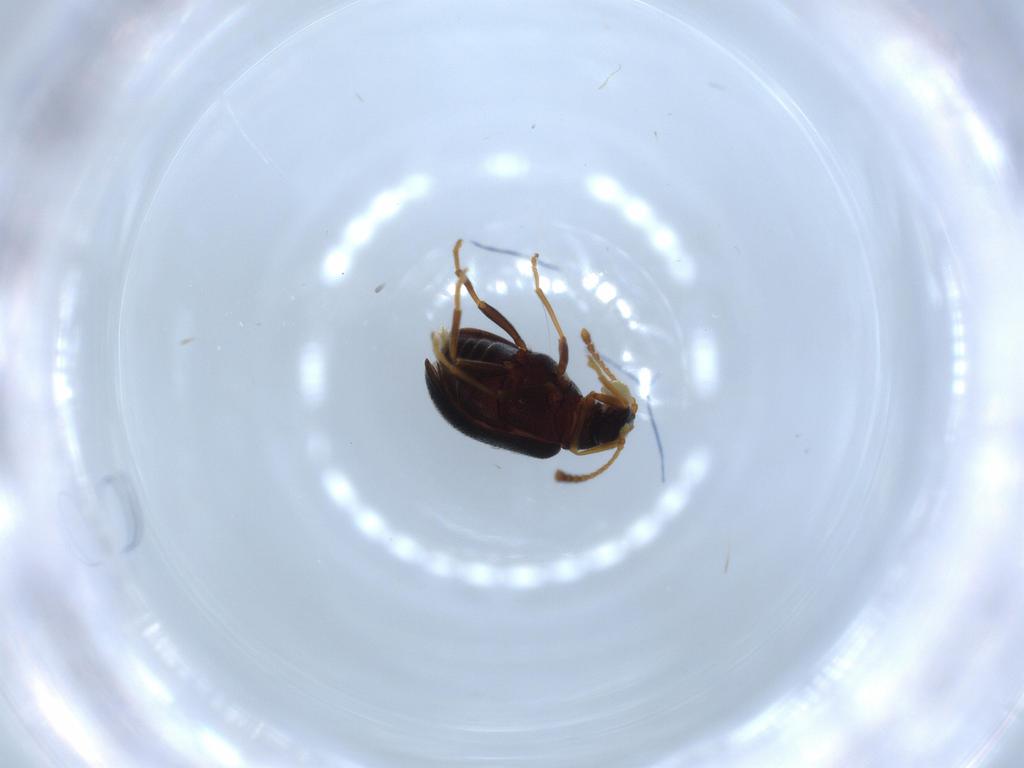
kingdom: Animalia
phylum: Arthropoda
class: Insecta
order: Coleoptera
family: Aderidae
